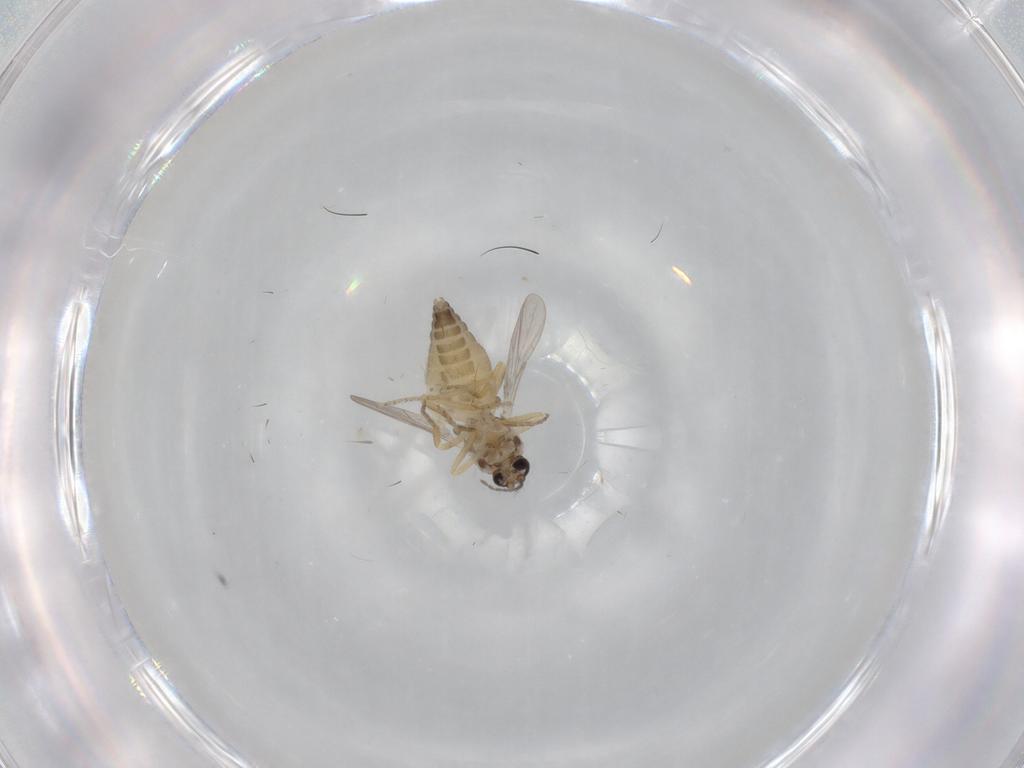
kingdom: Animalia
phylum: Arthropoda
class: Insecta
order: Diptera
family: Ceratopogonidae
